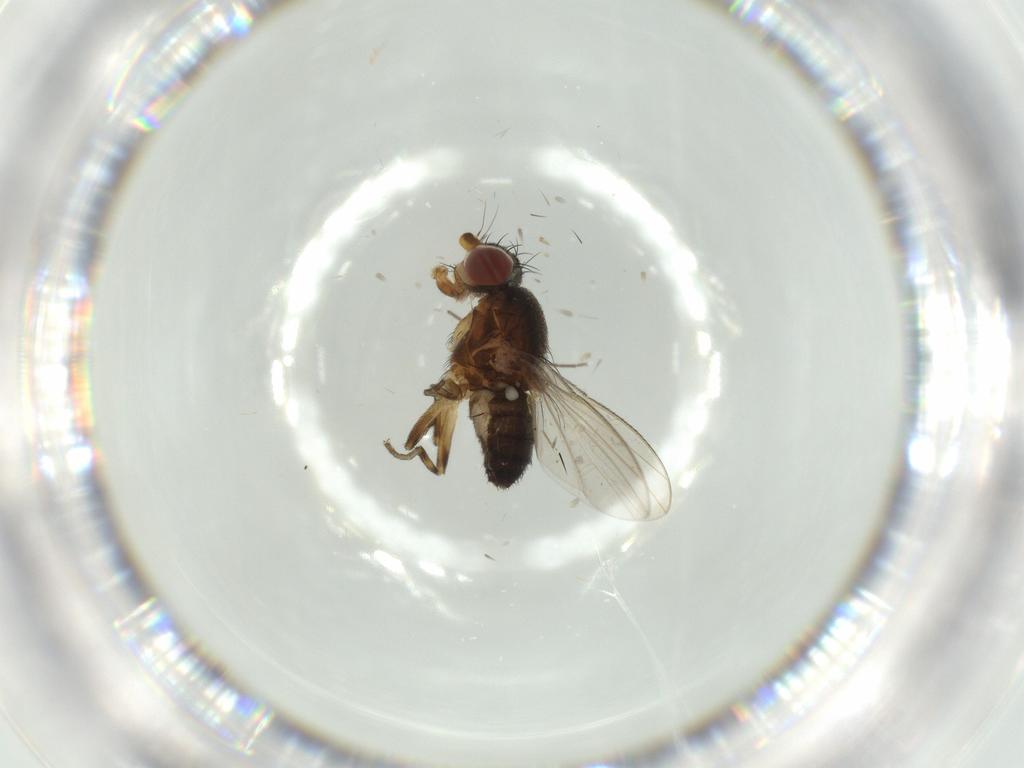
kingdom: Animalia
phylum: Arthropoda
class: Insecta
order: Diptera
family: Heleomyzidae
